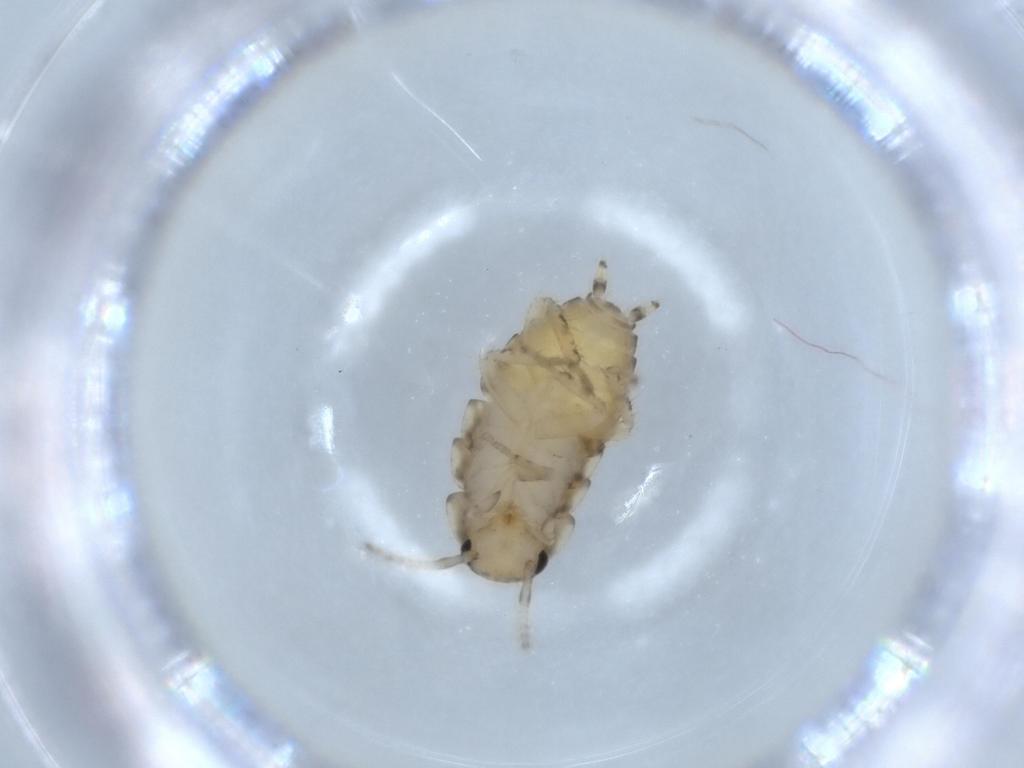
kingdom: Animalia
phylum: Arthropoda
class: Insecta
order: Blattodea
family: Ectobiidae
